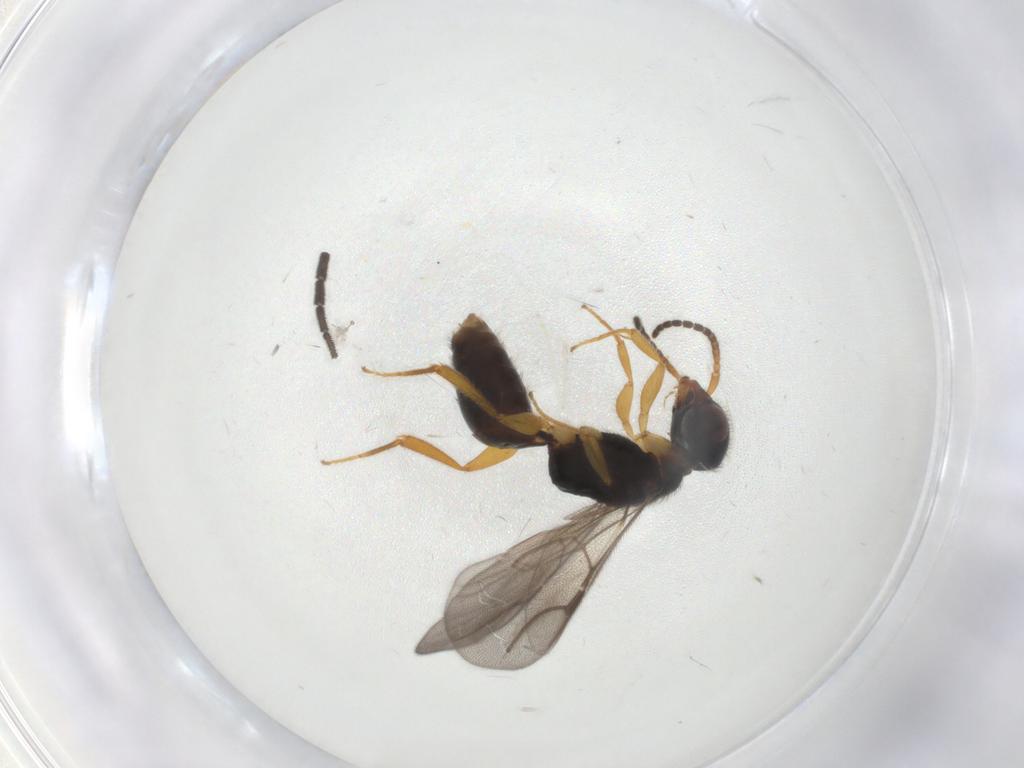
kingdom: Animalia
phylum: Arthropoda
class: Insecta
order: Hymenoptera
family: Bethylidae
